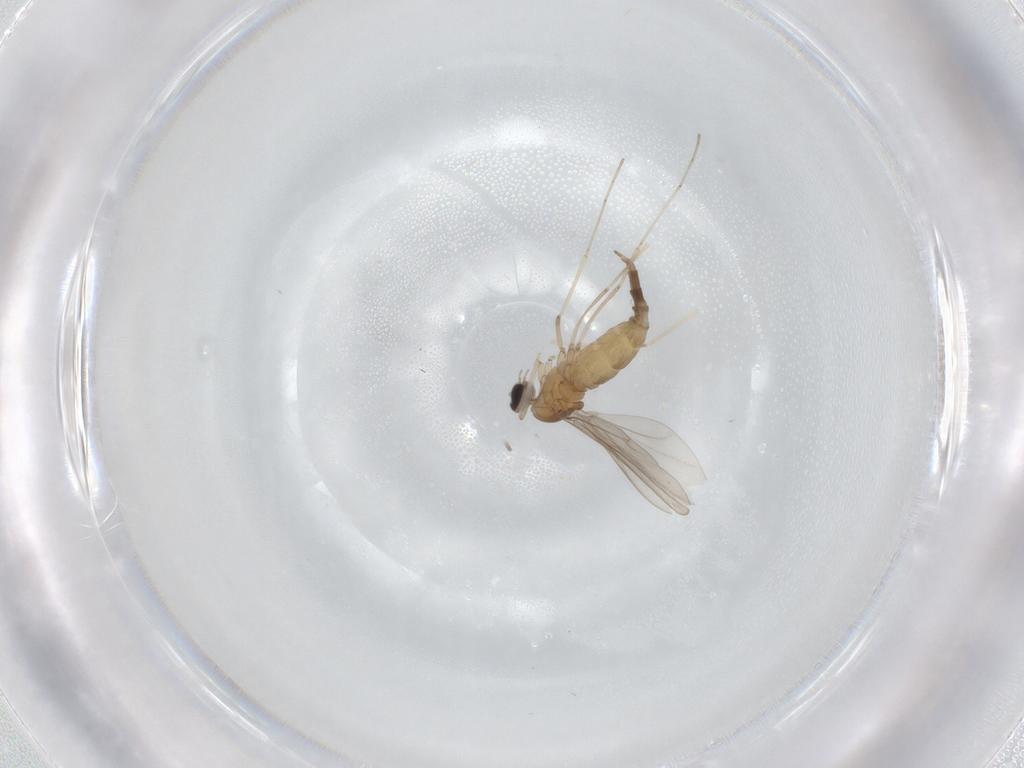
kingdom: Animalia
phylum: Arthropoda
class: Insecta
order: Diptera
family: Cecidomyiidae
